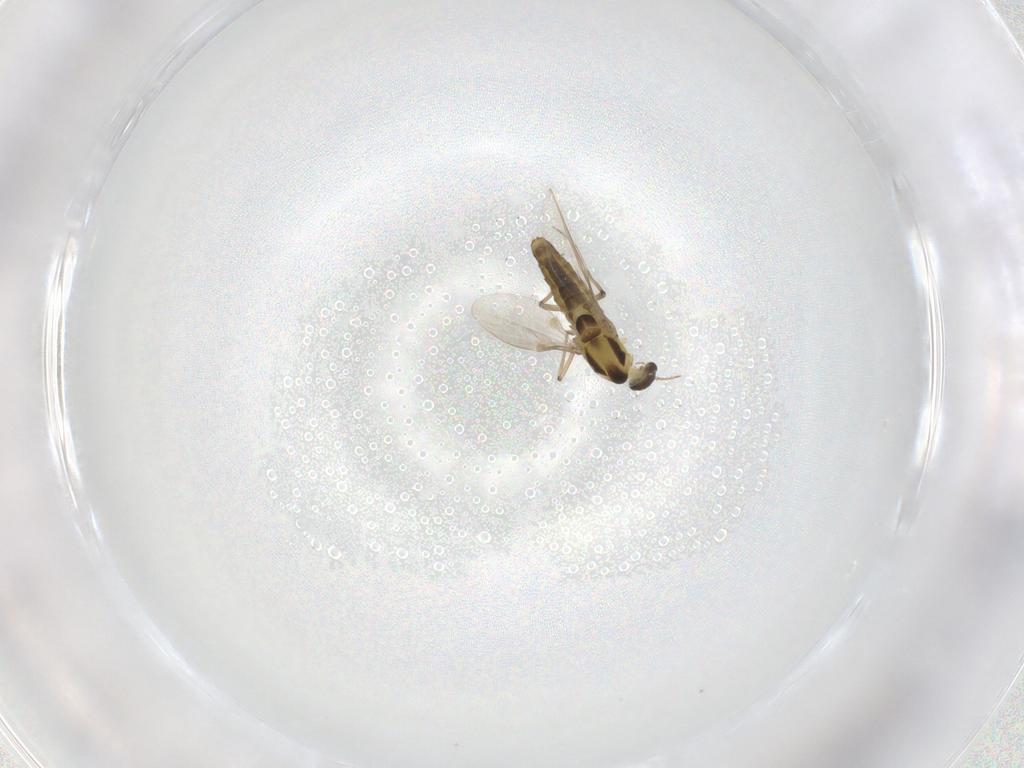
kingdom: Animalia
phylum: Arthropoda
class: Insecta
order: Diptera
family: Chironomidae
